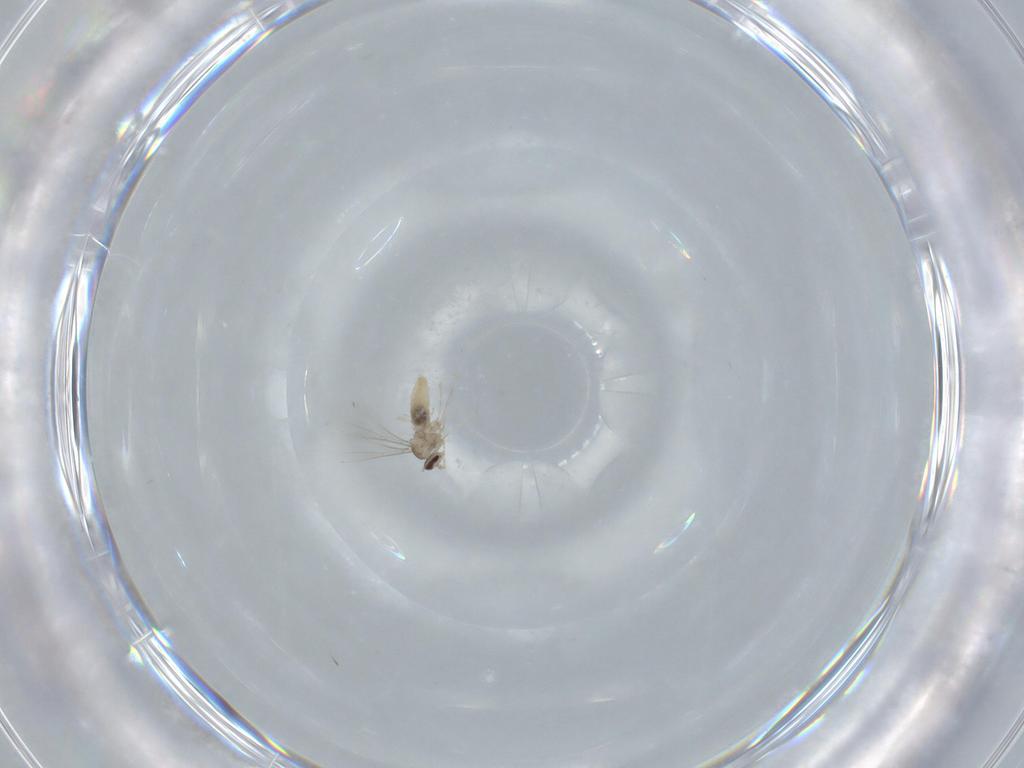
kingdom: Animalia
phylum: Arthropoda
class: Insecta
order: Diptera
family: Cecidomyiidae
